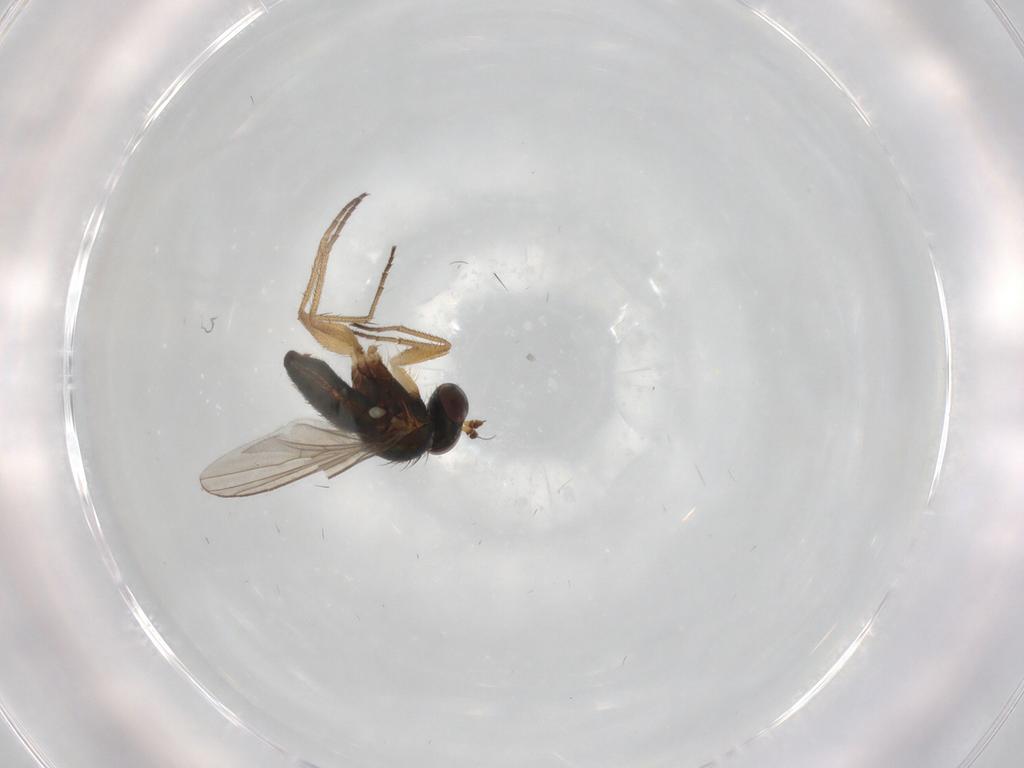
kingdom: Animalia
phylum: Arthropoda
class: Insecta
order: Diptera
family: Dolichopodidae
